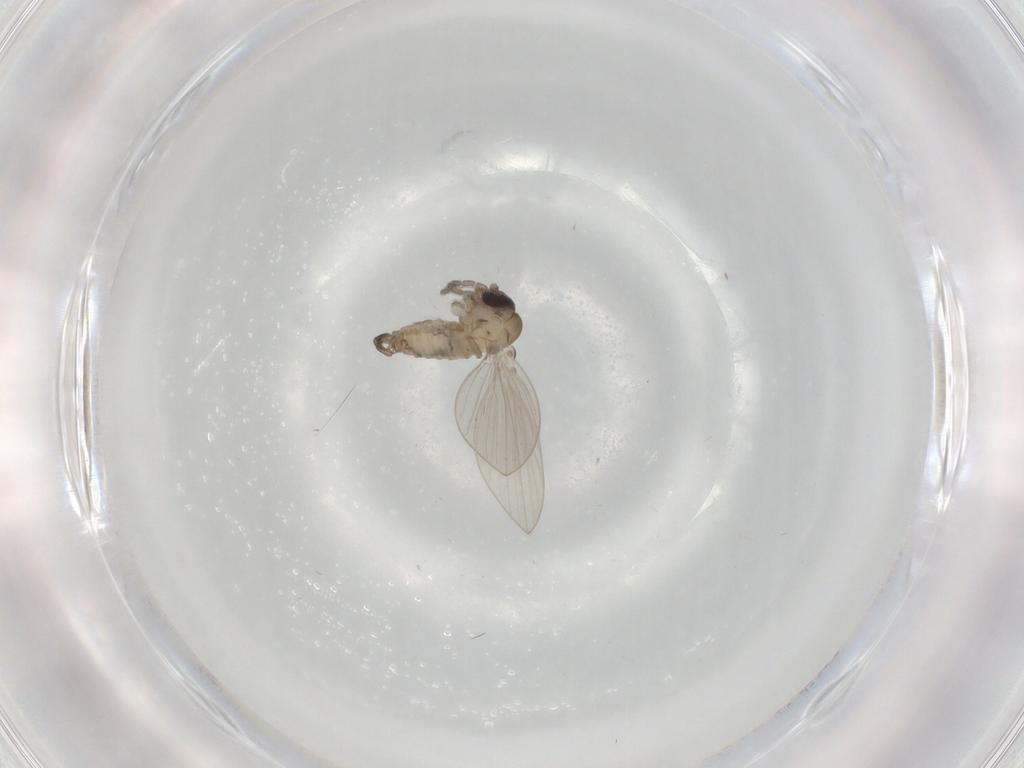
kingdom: Animalia
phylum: Arthropoda
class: Insecta
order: Diptera
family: Psychodidae
